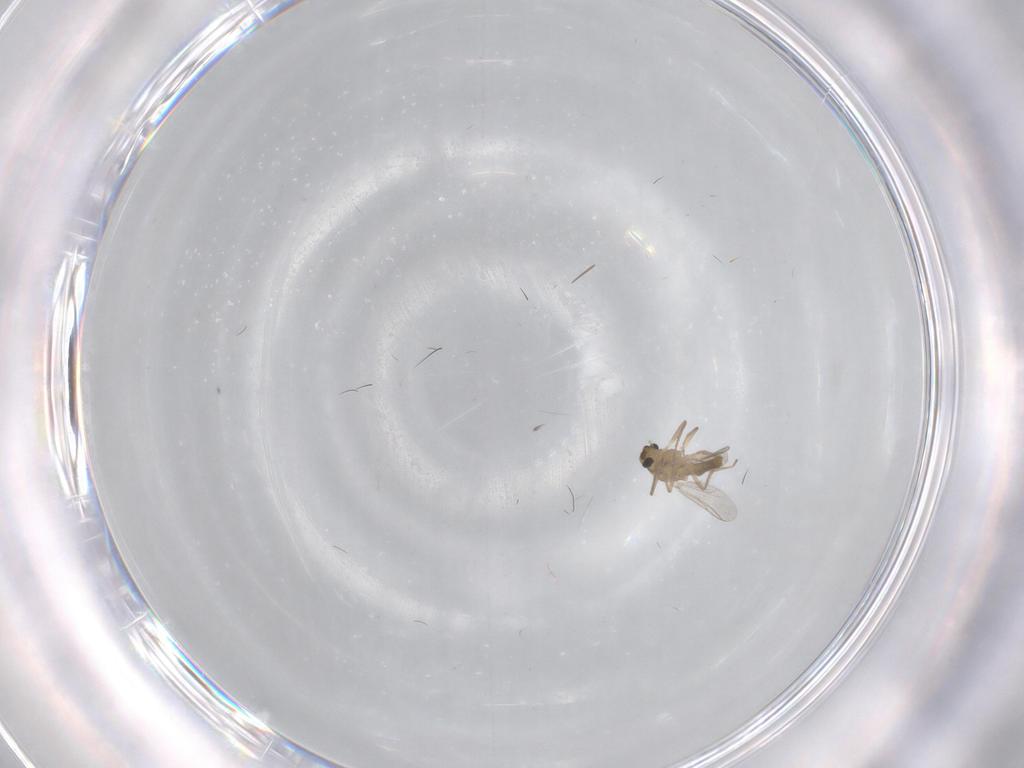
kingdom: Animalia
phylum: Arthropoda
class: Insecta
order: Diptera
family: Chironomidae
